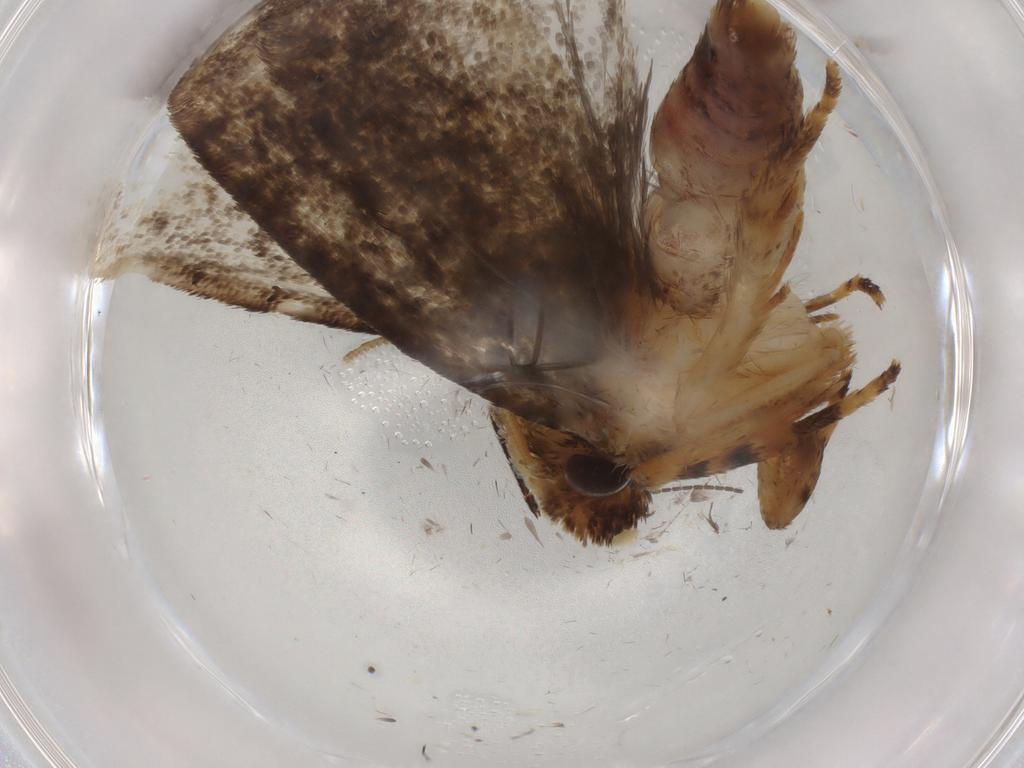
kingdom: Animalia
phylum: Arthropoda
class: Insecta
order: Lepidoptera
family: Tineidae
